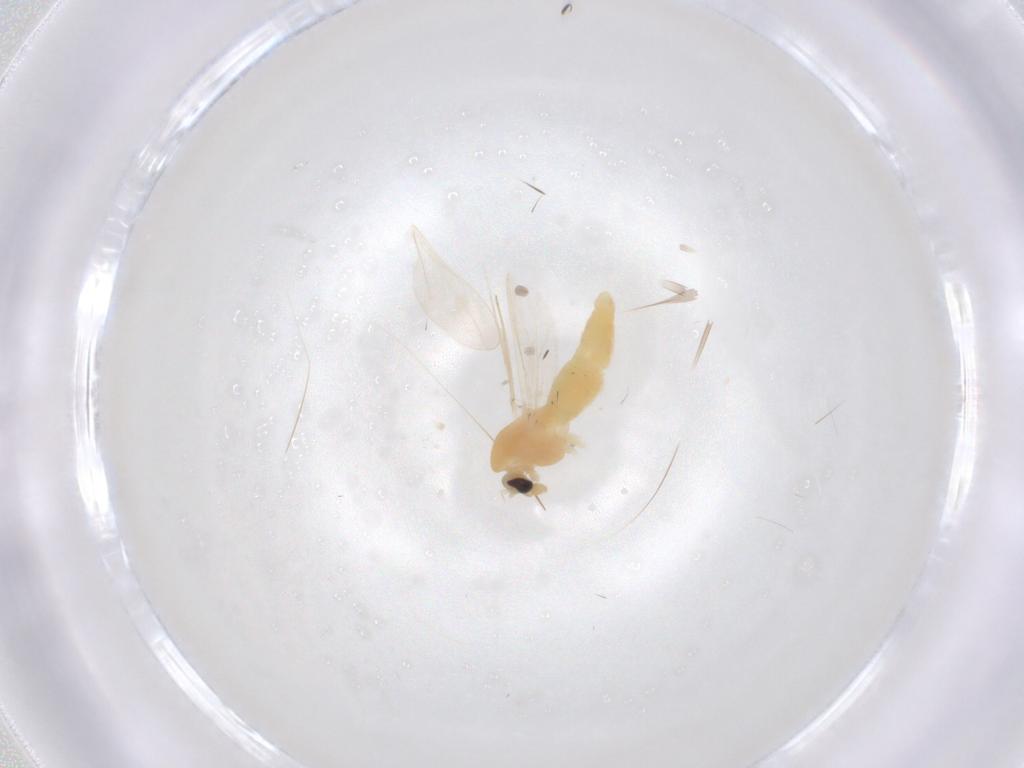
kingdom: Animalia
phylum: Arthropoda
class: Insecta
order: Diptera
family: Chironomidae
